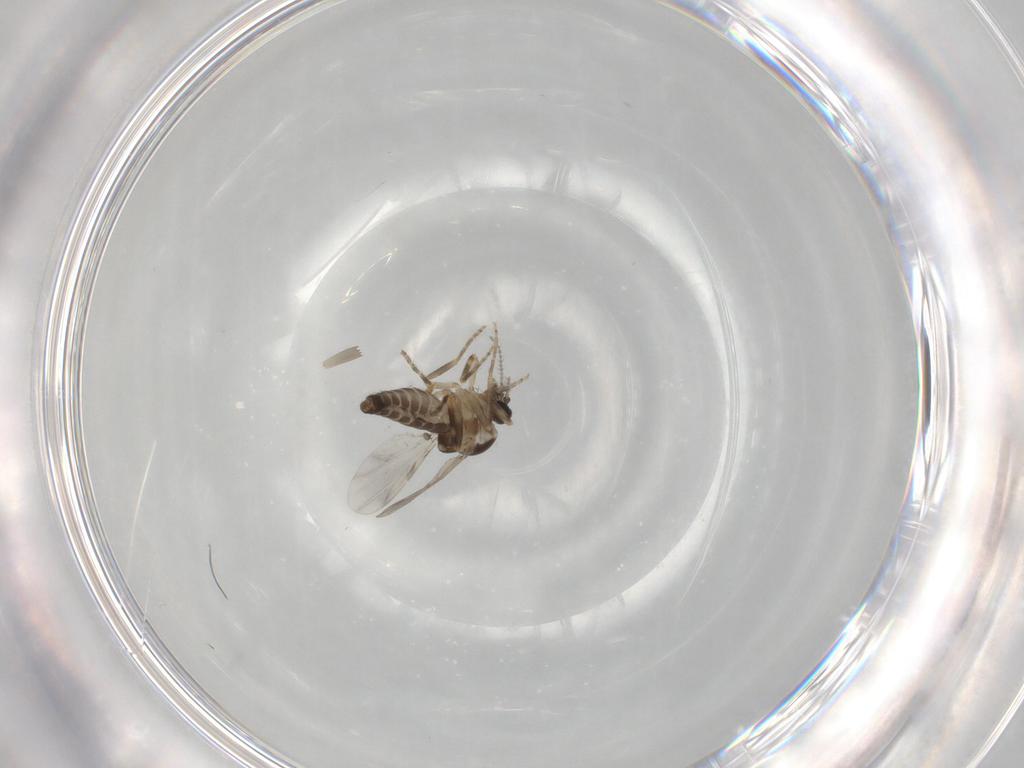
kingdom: Animalia
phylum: Arthropoda
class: Insecta
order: Diptera
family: Ceratopogonidae
